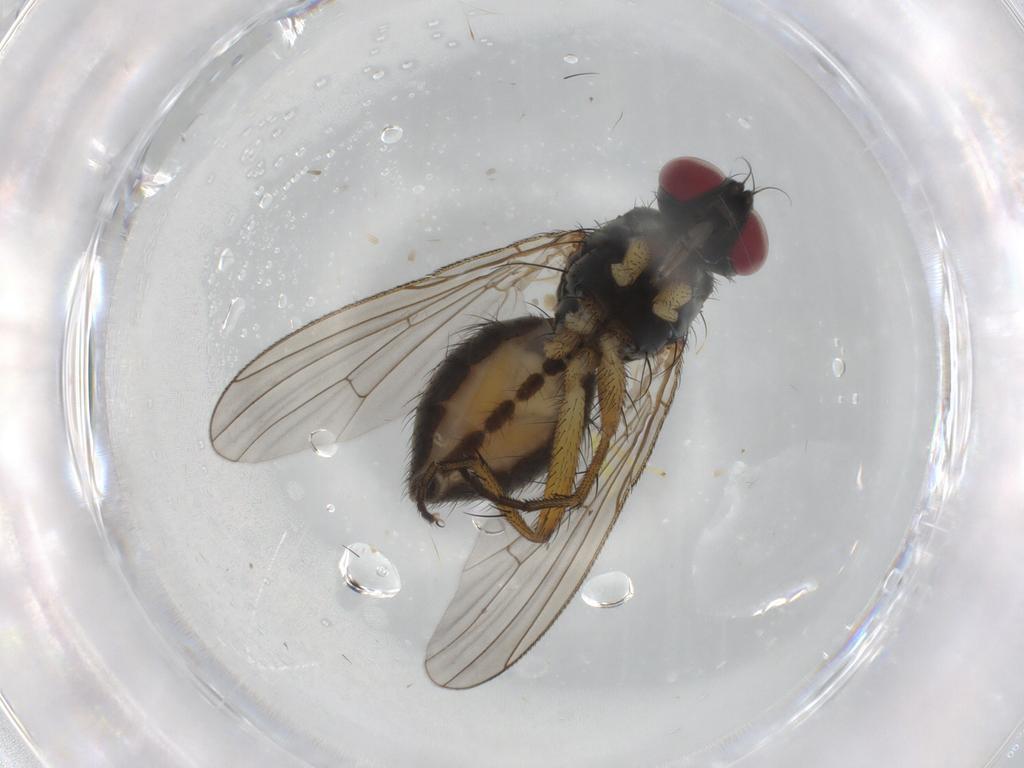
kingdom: Animalia
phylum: Arthropoda
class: Insecta
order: Diptera
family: Muscidae
